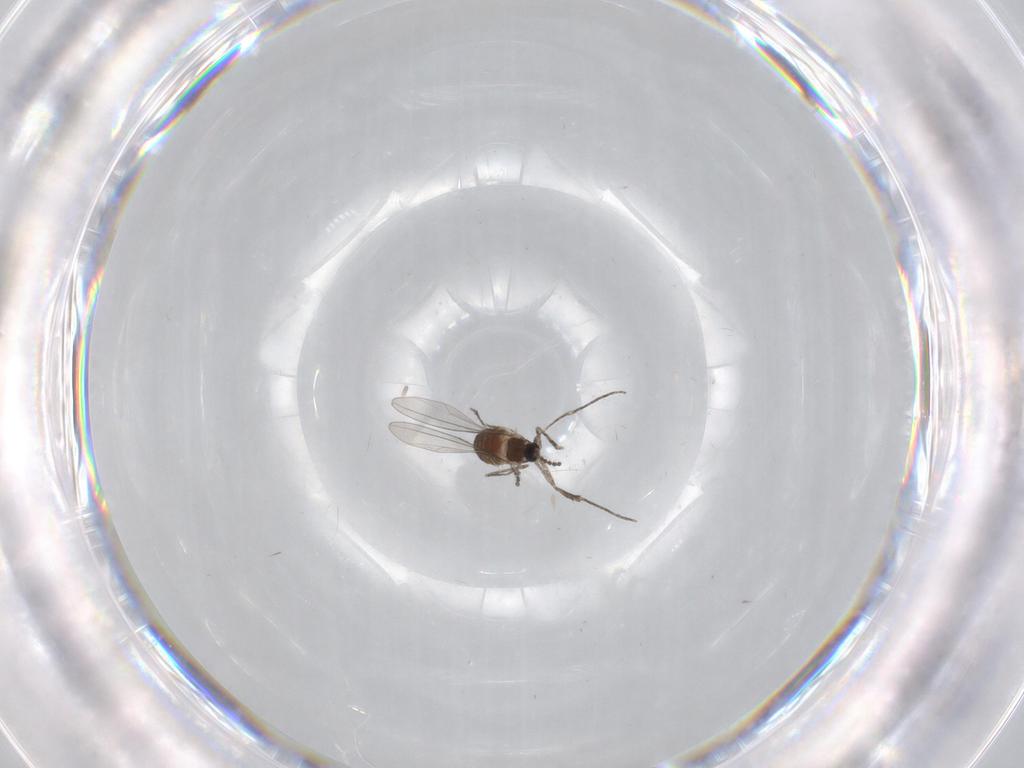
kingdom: Animalia
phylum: Arthropoda
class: Insecta
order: Diptera
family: Cecidomyiidae
